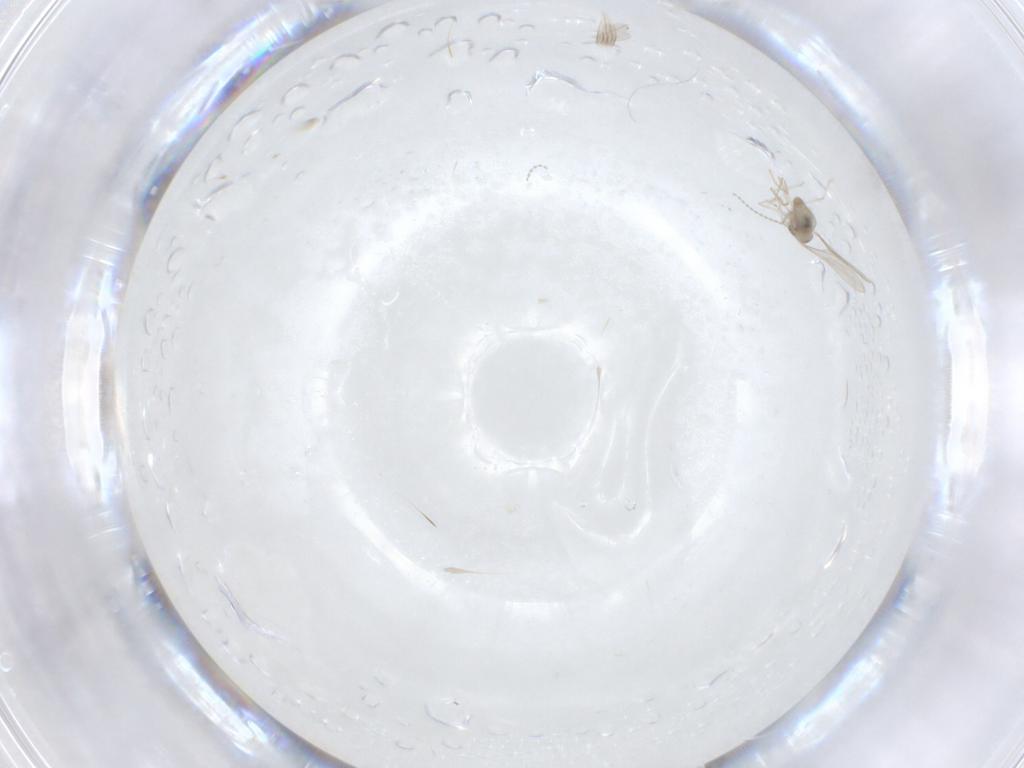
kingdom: Animalia
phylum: Arthropoda
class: Insecta
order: Diptera
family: Cecidomyiidae
